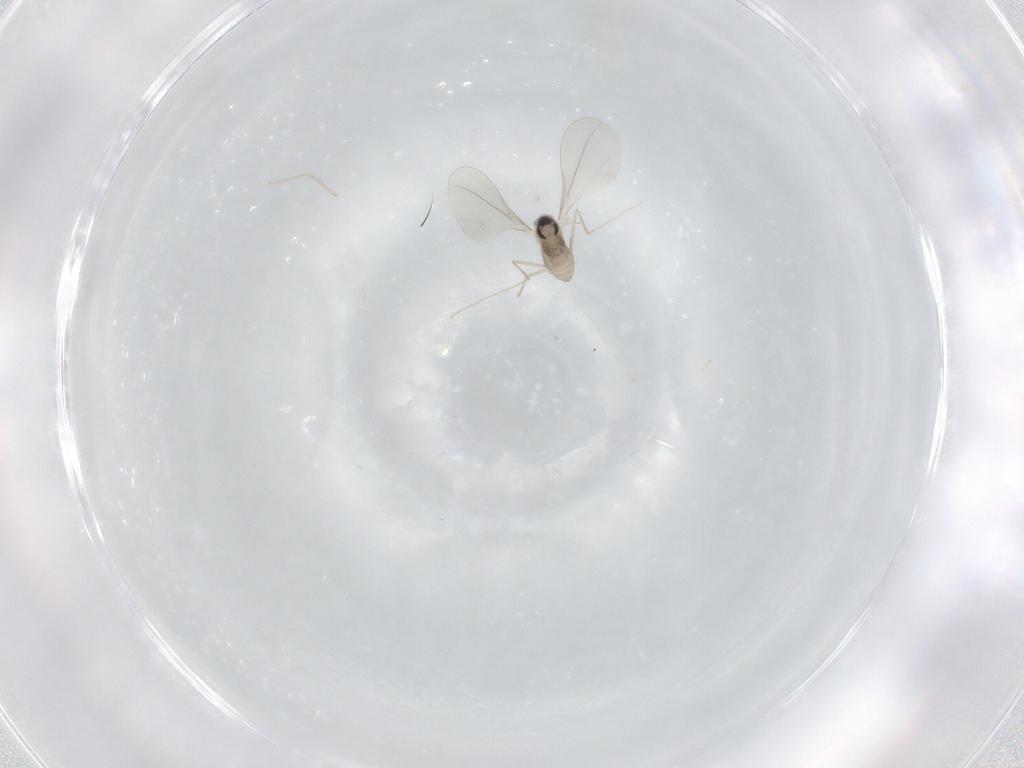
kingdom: Animalia
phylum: Arthropoda
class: Insecta
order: Diptera
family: Cecidomyiidae
